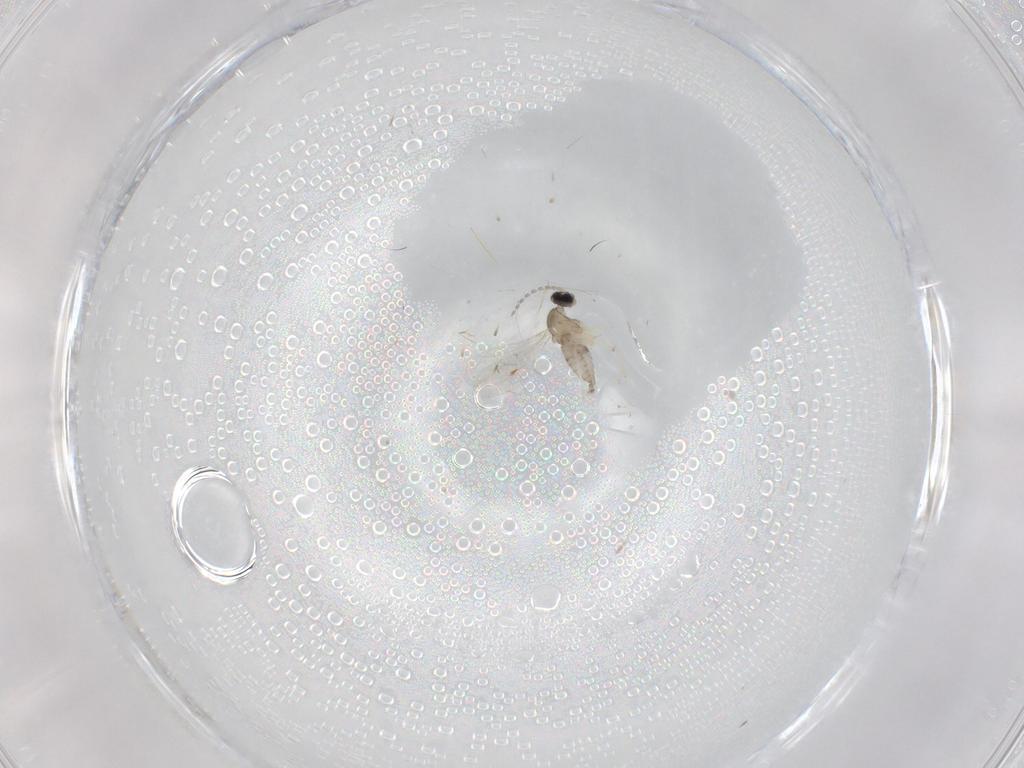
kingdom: Animalia
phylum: Arthropoda
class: Insecta
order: Diptera
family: Cecidomyiidae
